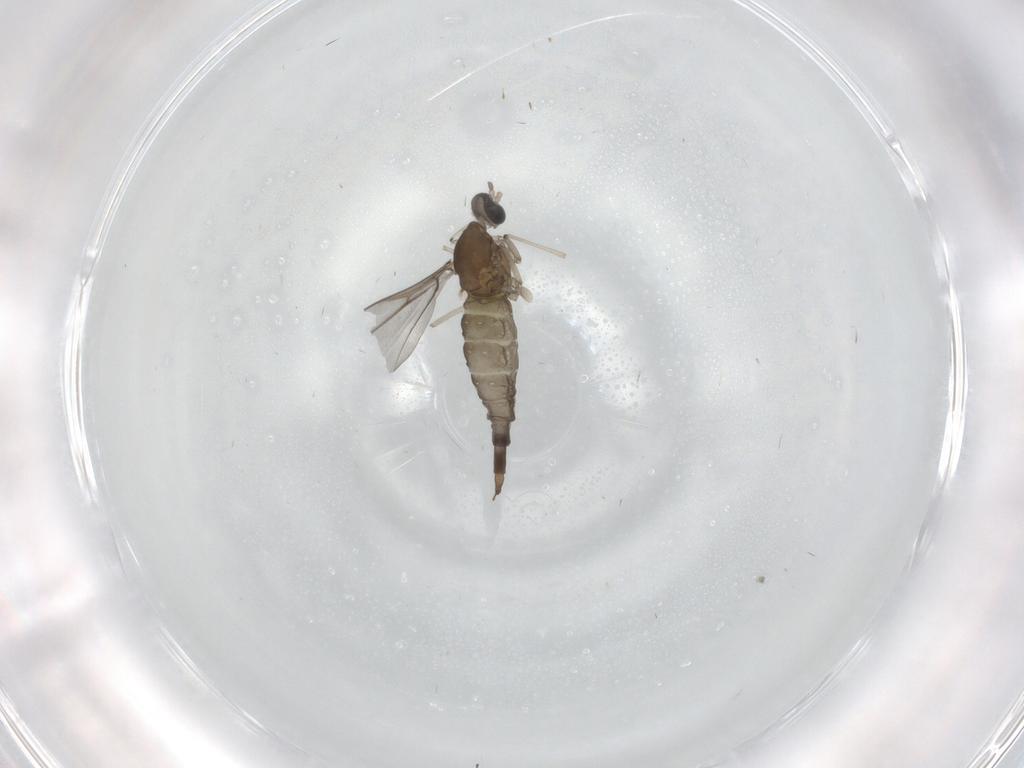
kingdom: Animalia
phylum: Arthropoda
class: Insecta
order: Diptera
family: Cecidomyiidae
